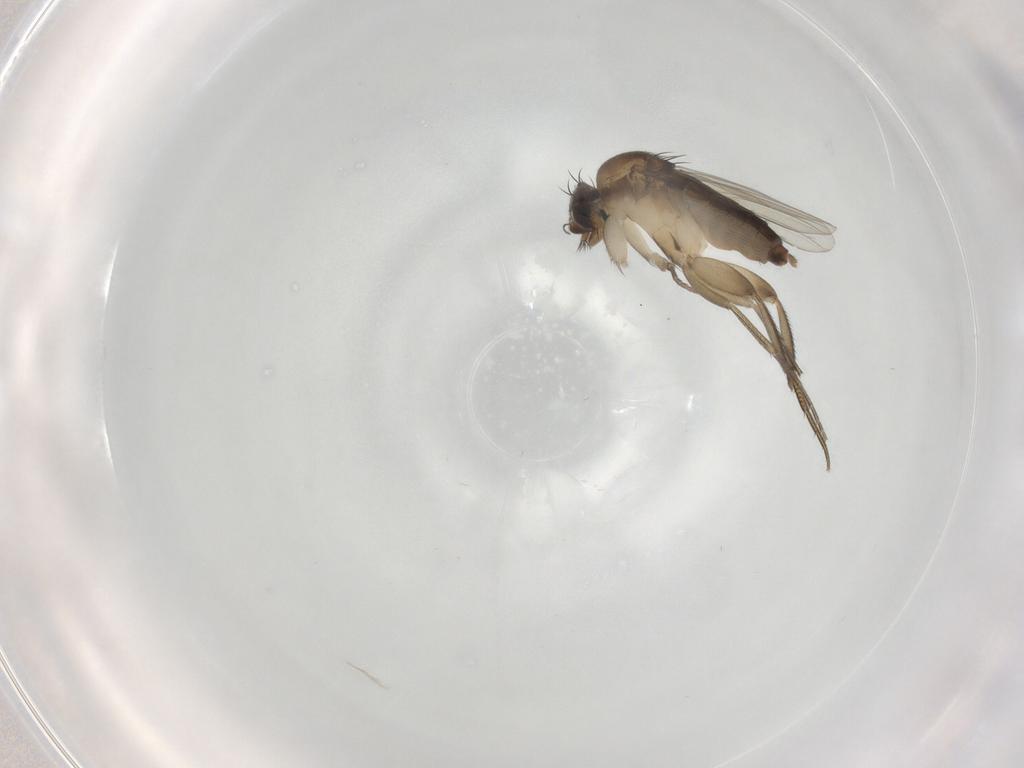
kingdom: Animalia
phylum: Arthropoda
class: Insecta
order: Diptera
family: Phoridae
